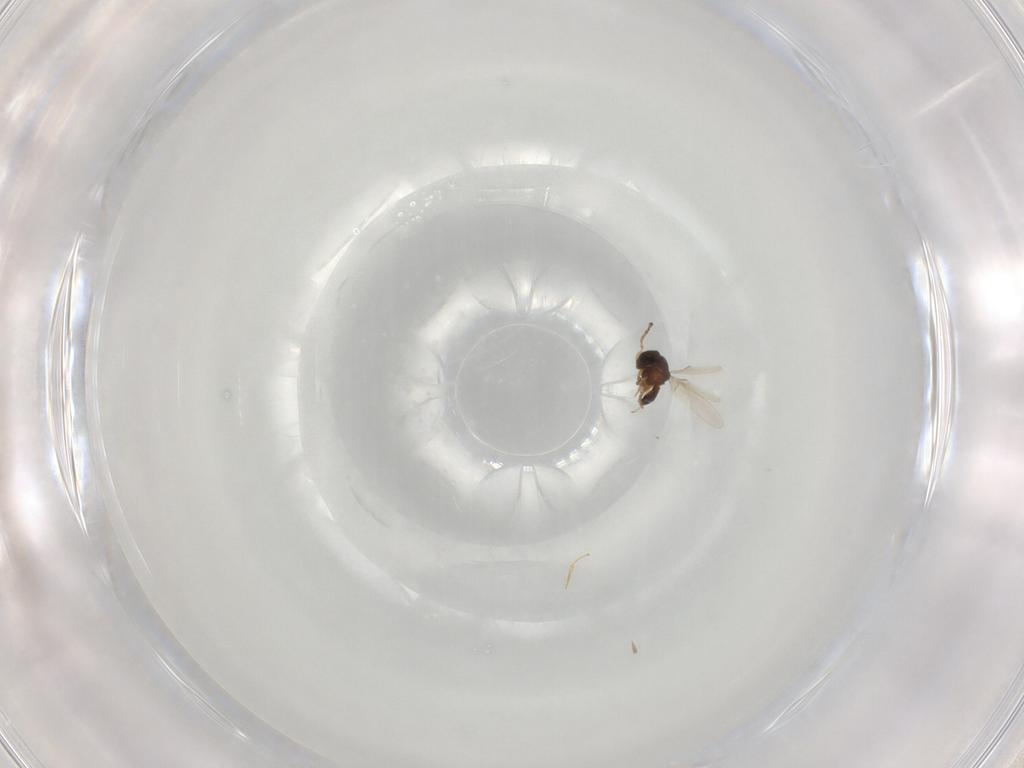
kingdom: Animalia
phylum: Arthropoda
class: Insecta
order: Hymenoptera
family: Scelionidae
